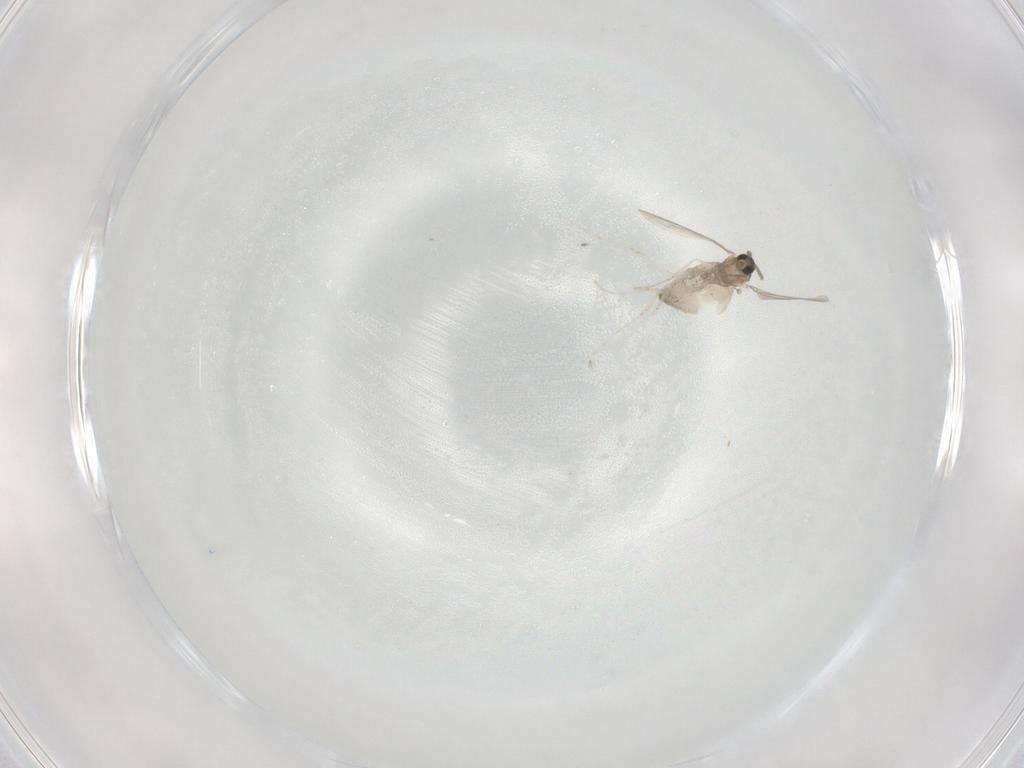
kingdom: Animalia
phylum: Arthropoda
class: Insecta
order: Diptera
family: Cecidomyiidae
